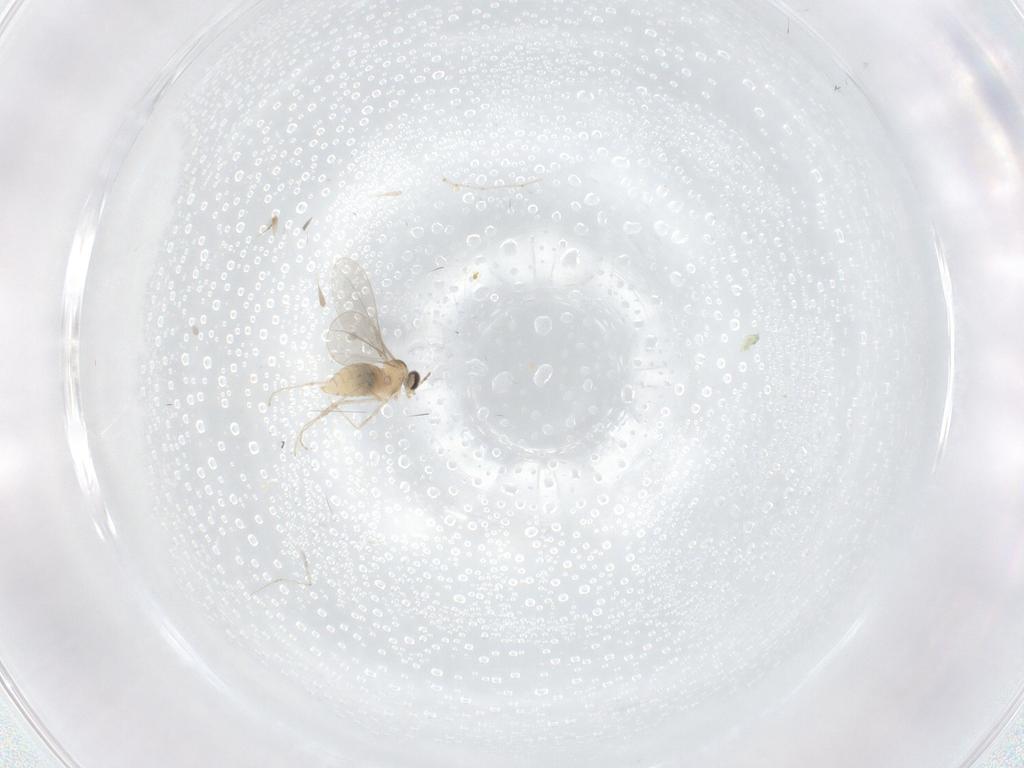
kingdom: Animalia
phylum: Arthropoda
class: Insecta
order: Diptera
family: Cecidomyiidae
